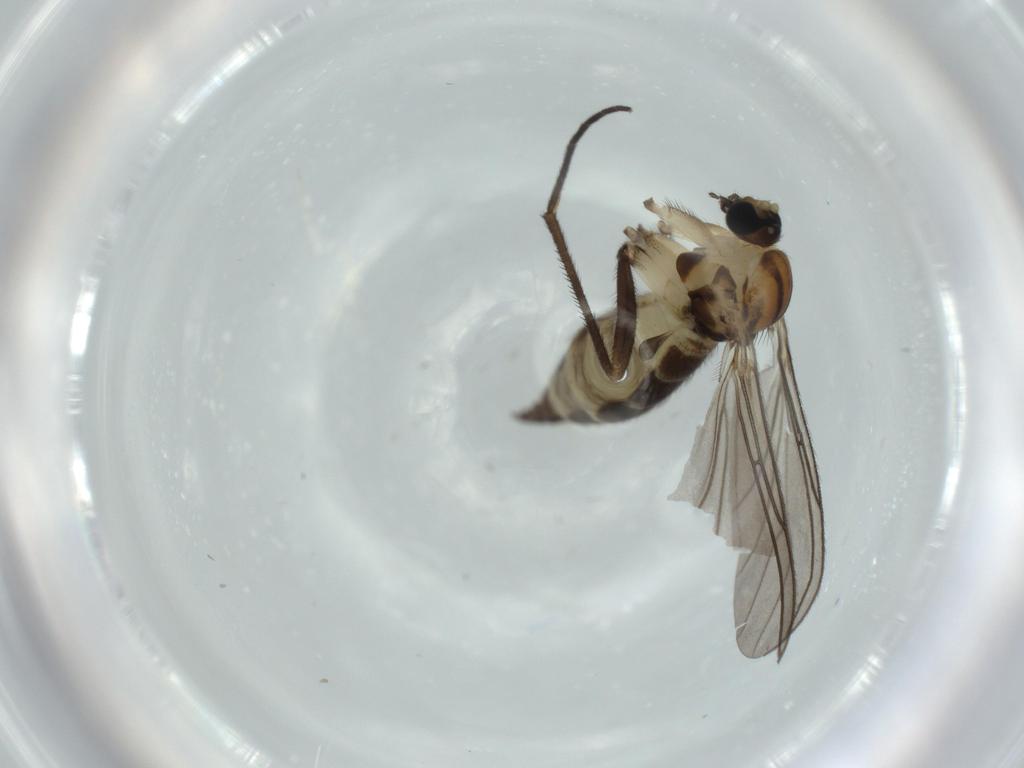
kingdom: Animalia
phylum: Arthropoda
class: Insecta
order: Diptera
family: Sciaridae
